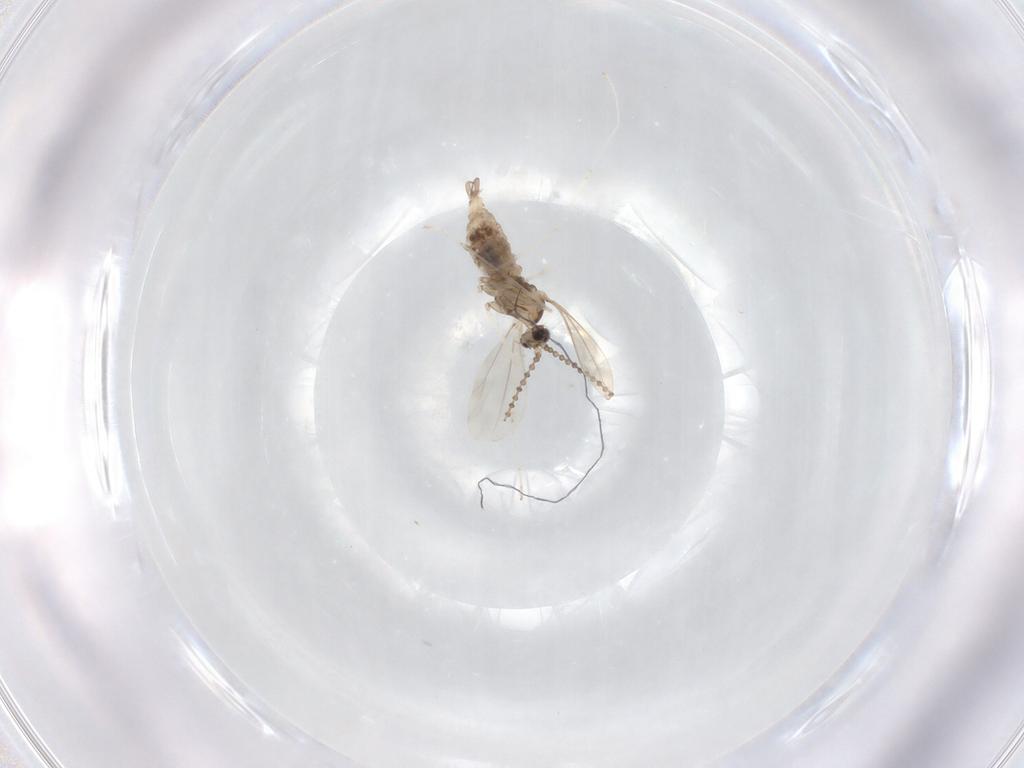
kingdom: Animalia
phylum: Arthropoda
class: Insecta
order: Diptera
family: Cecidomyiidae
